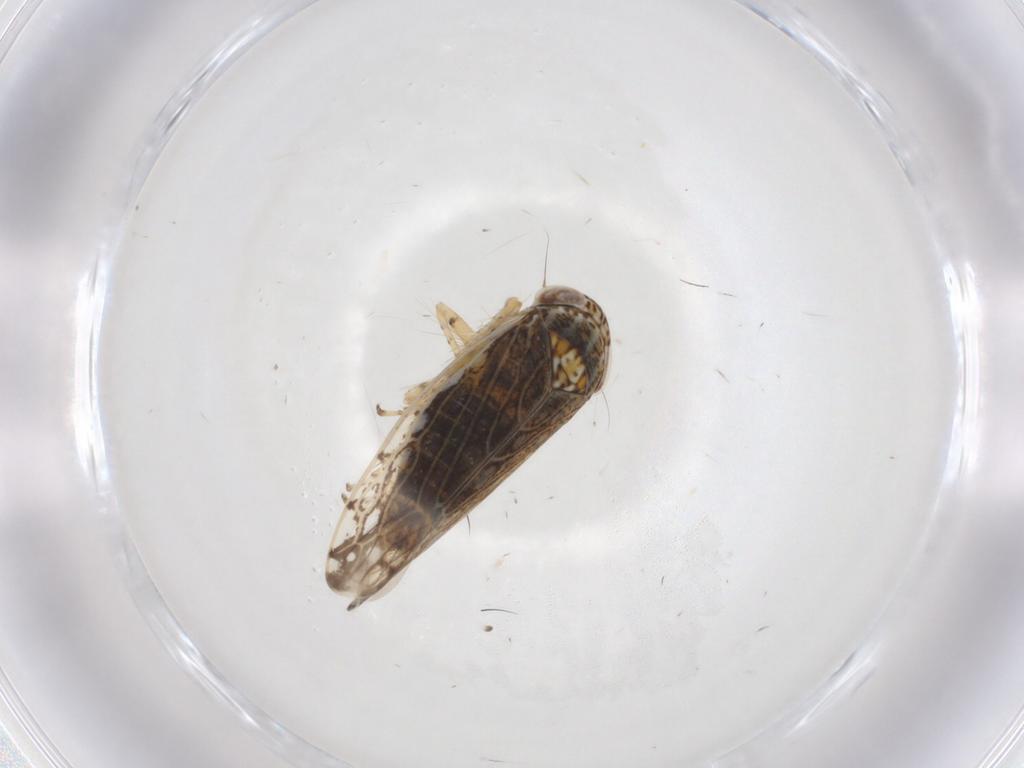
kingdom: Animalia
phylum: Arthropoda
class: Insecta
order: Hemiptera
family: Cicadellidae
